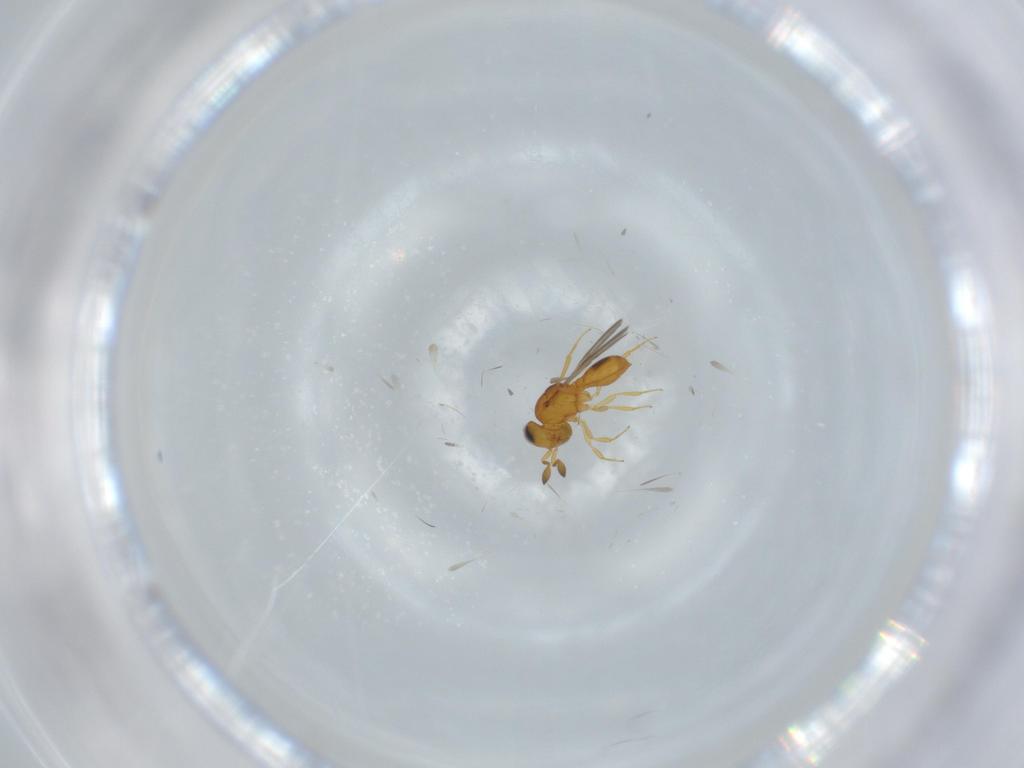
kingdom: Animalia
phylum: Arthropoda
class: Insecta
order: Hymenoptera
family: Scelionidae
